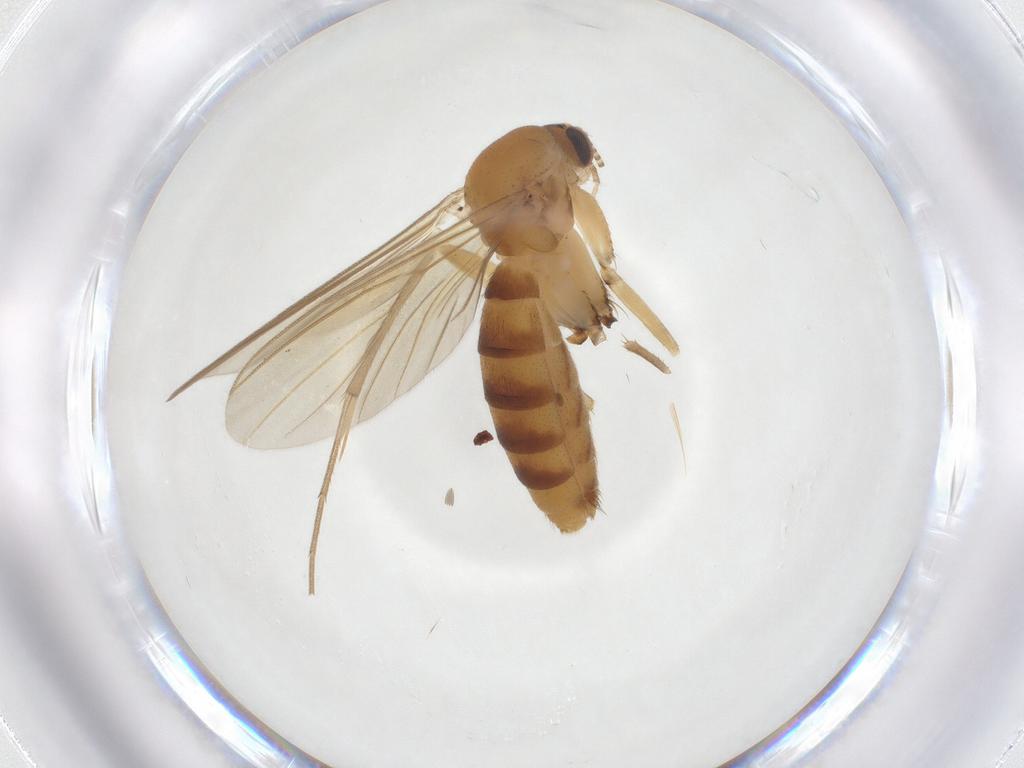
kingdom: Animalia
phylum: Arthropoda
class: Insecta
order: Diptera
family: Mycetophilidae
